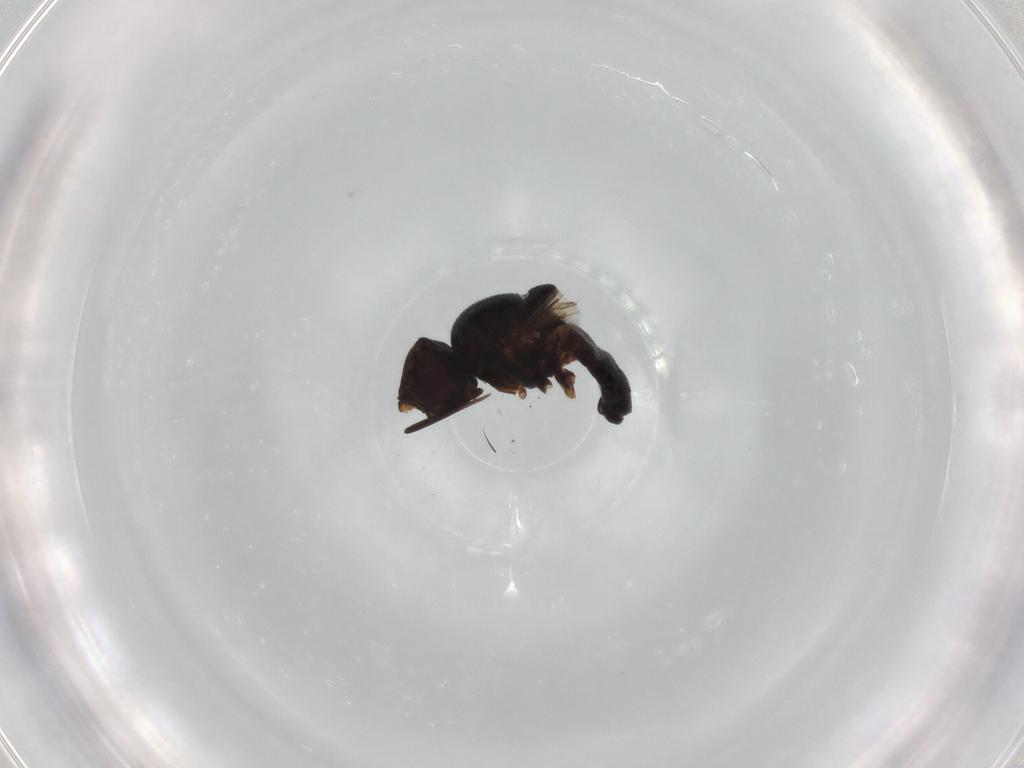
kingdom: Animalia
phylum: Arthropoda
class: Insecta
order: Diptera
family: Chloropidae
